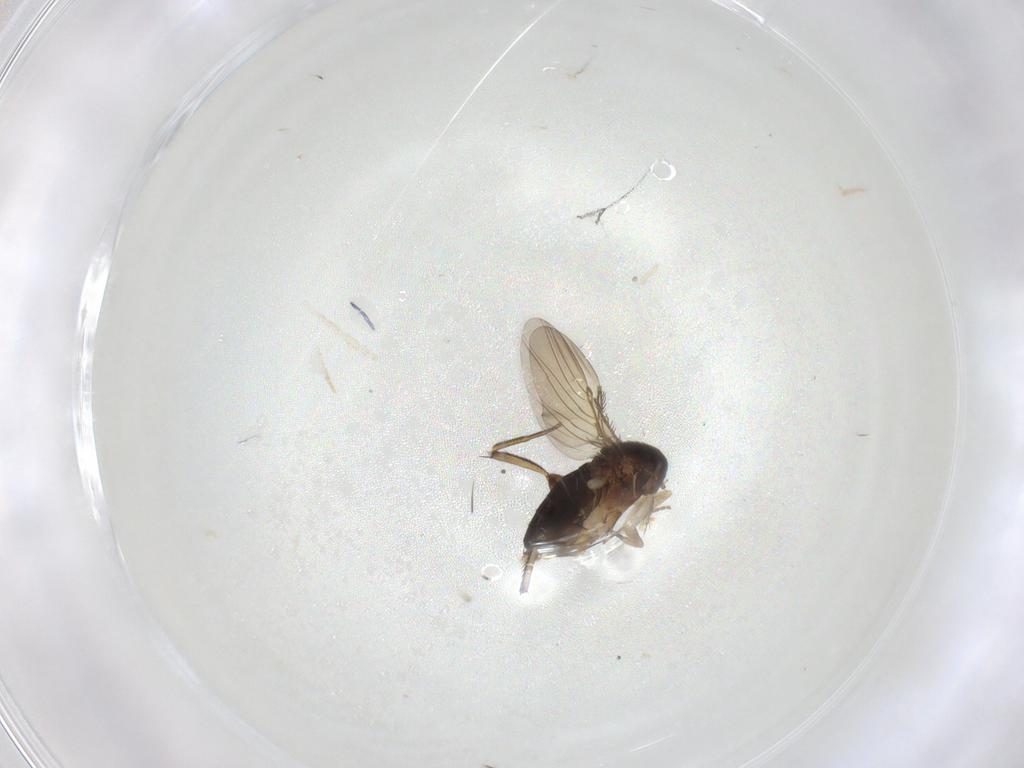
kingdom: Animalia
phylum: Arthropoda
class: Insecta
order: Diptera
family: Phoridae
